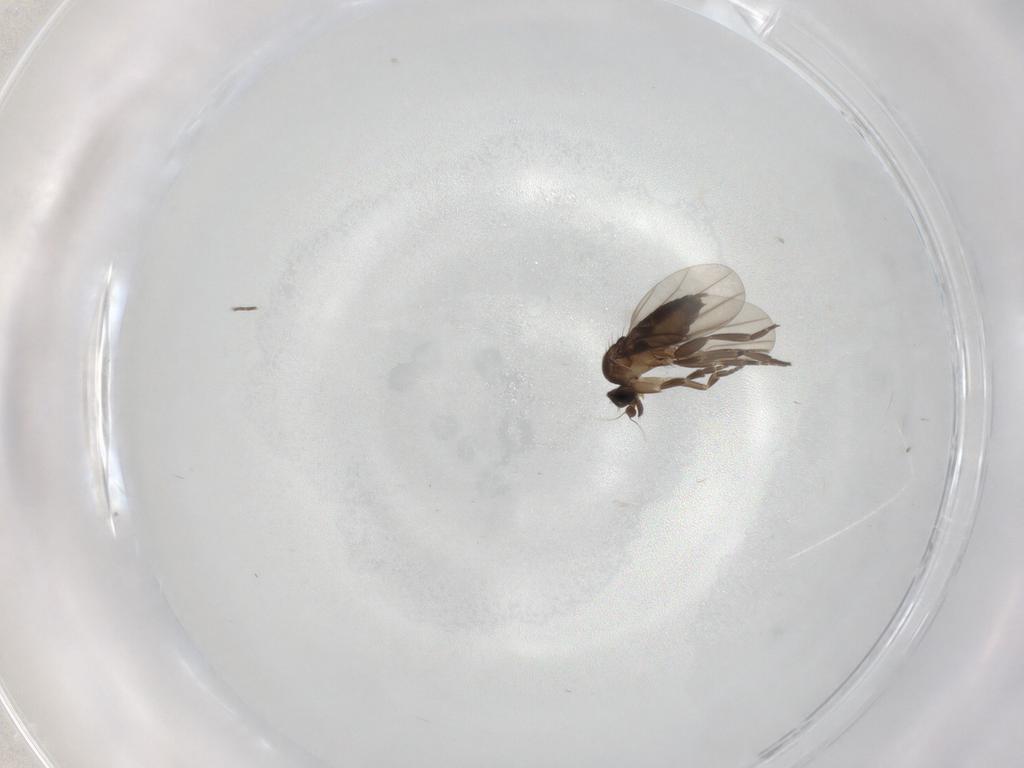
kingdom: Animalia
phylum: Arthropoda
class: Insecta
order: Diptera
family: Phoridae
